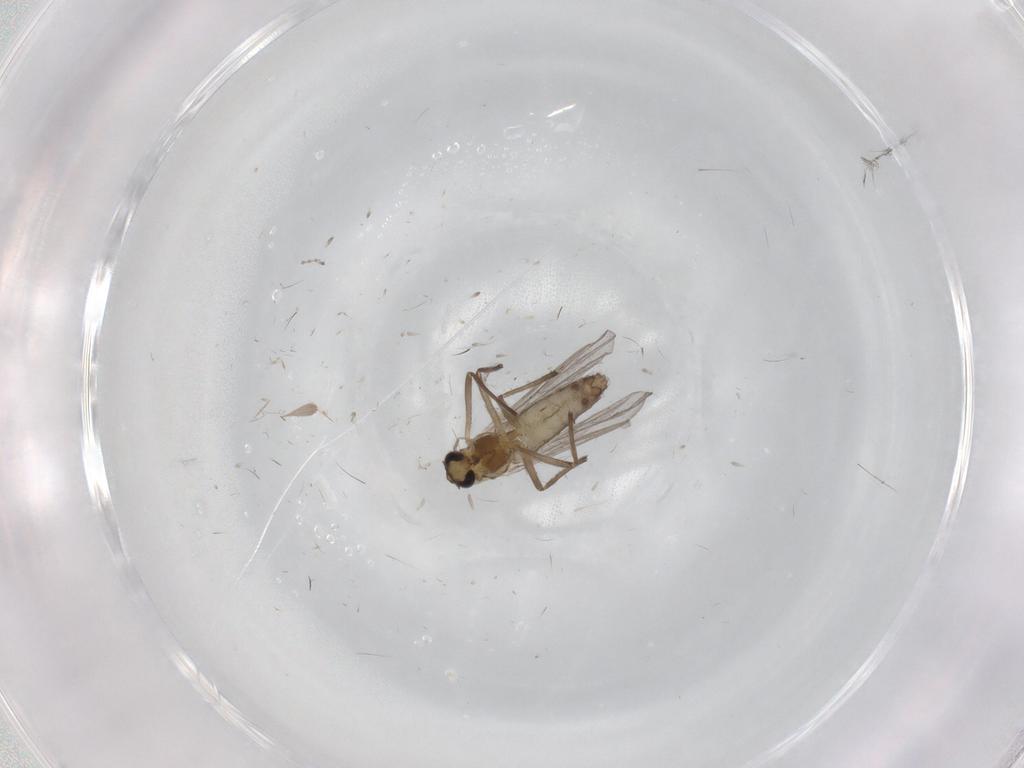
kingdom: Animalia
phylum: Arthropoda
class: Insecta
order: Diptera
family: Chironomidae
